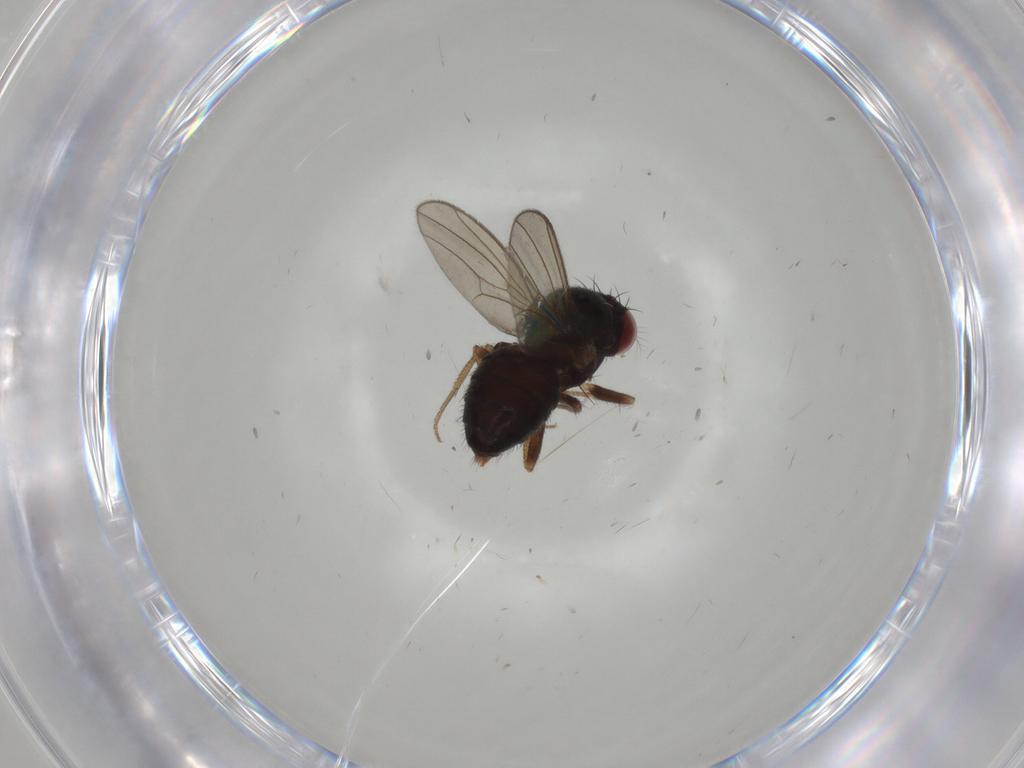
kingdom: Animalia
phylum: Arthropoda
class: Insecta
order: Diptera
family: Drosophilidae
